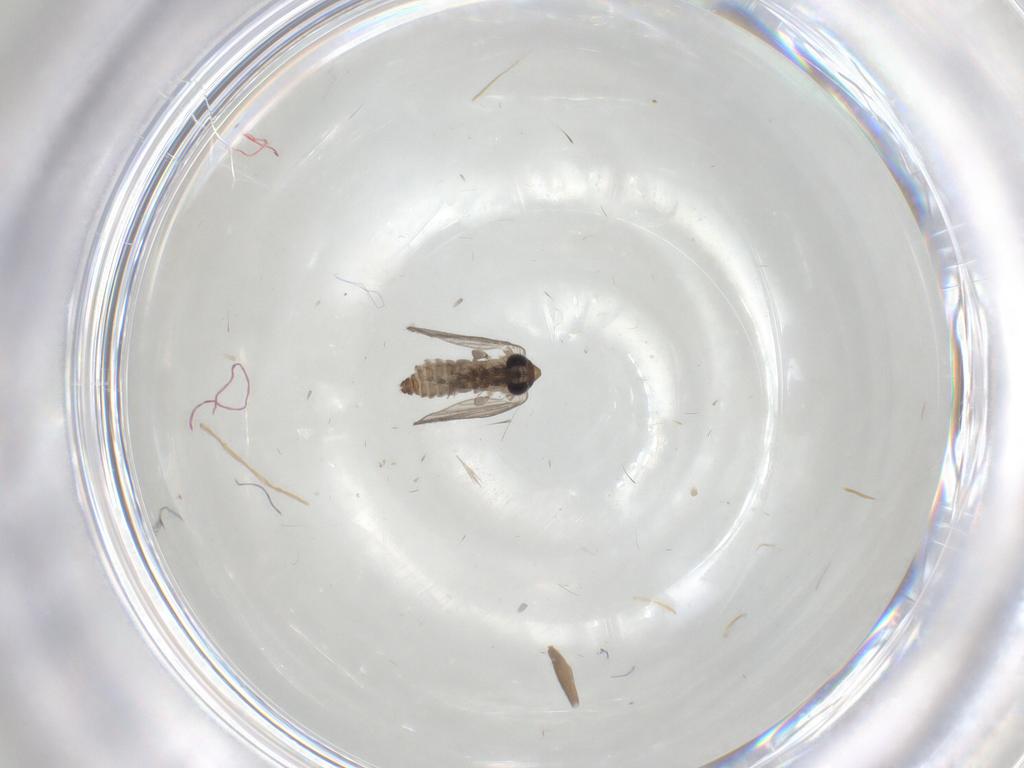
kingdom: Animalia
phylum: Arthropoda
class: Insecta
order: Diptera
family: Psychodidae
